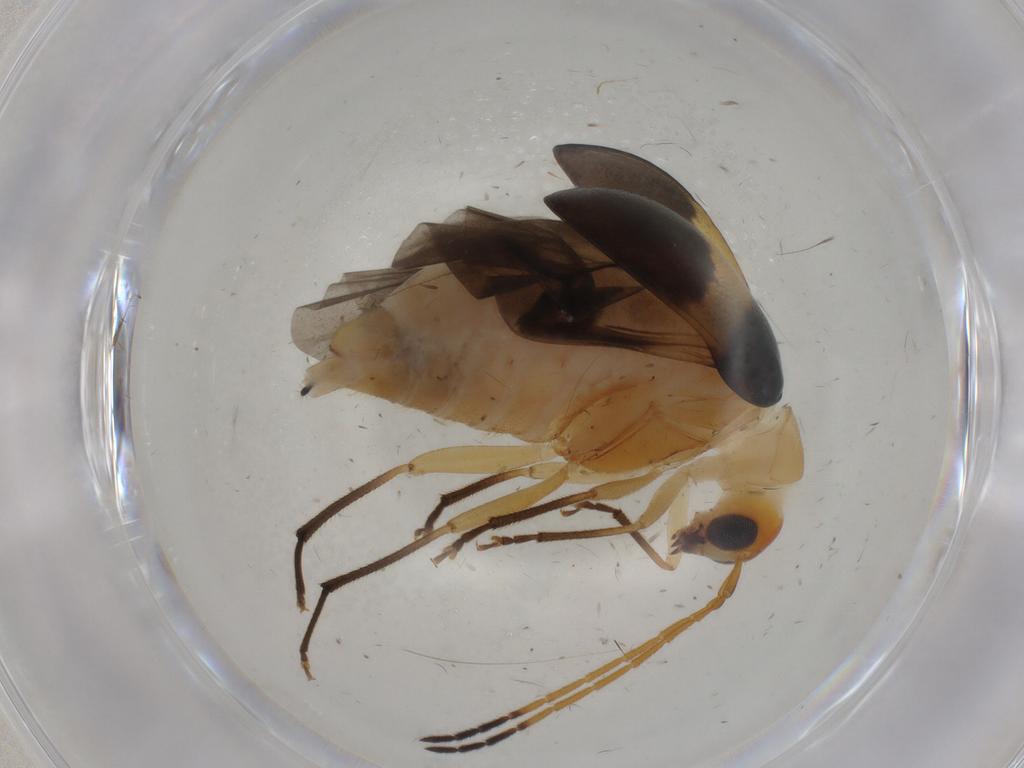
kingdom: Animalia
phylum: Arthropoda
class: Insecta
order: Coleoptera
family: Chrysomelidae
